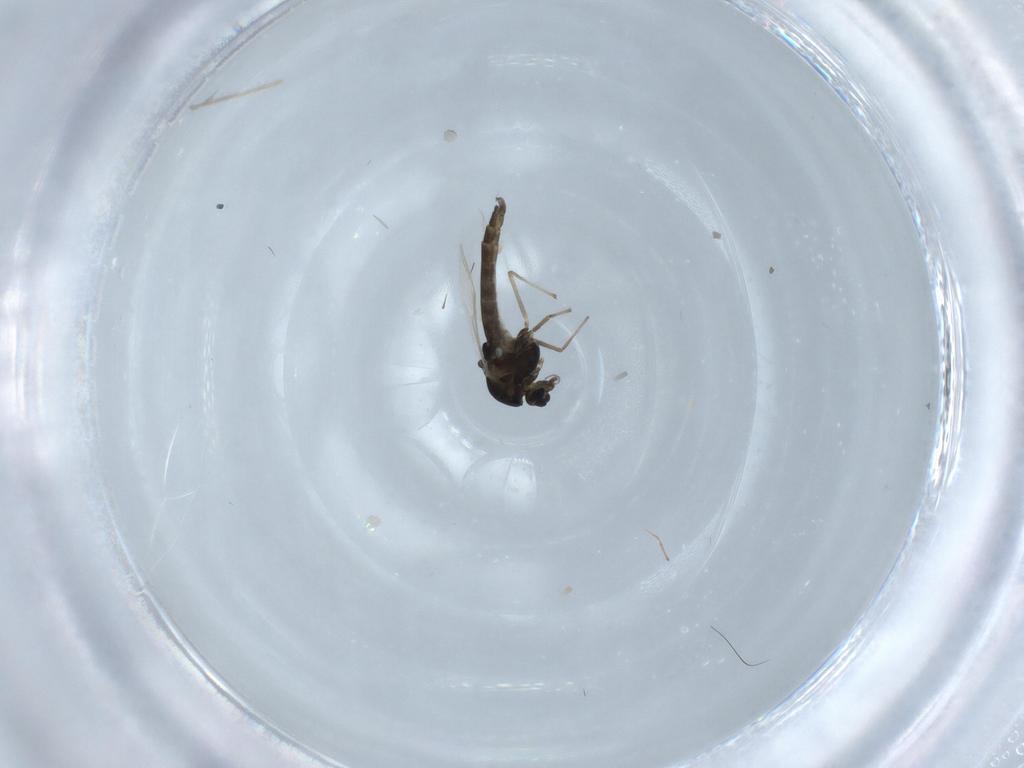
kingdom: Animalia
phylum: Arthropoda
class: Insecta
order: Diptera
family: Chironomidae
